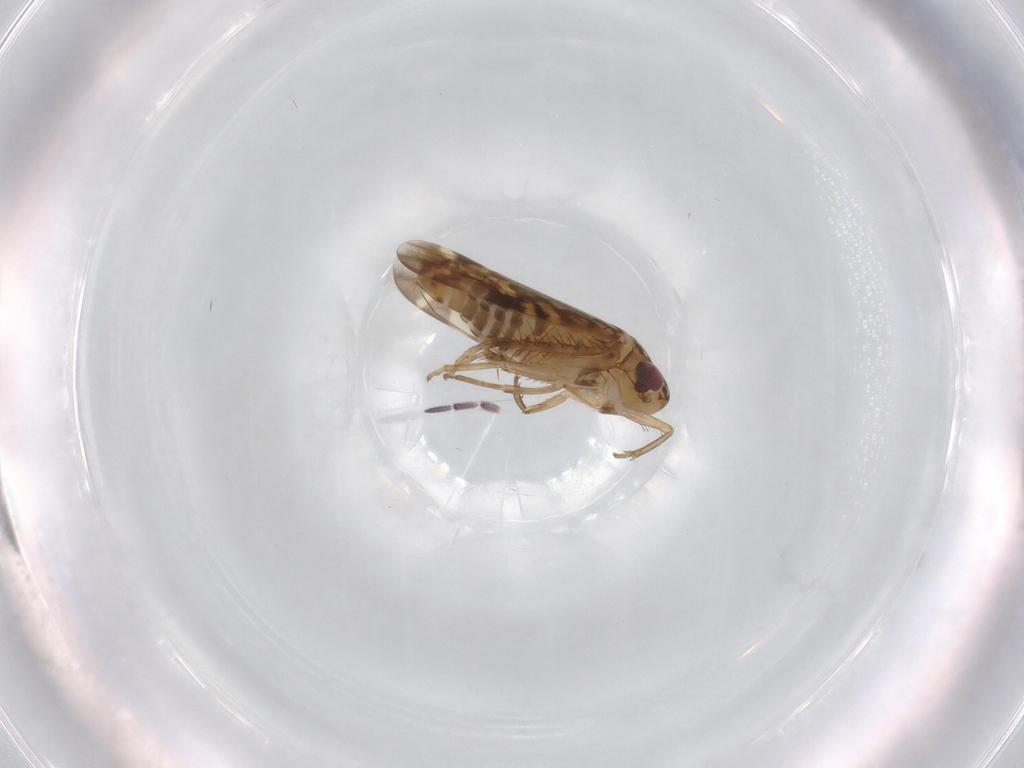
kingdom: Animalia
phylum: Arthropoda
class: Insecta
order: Hemiptera
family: Cicadellidae
